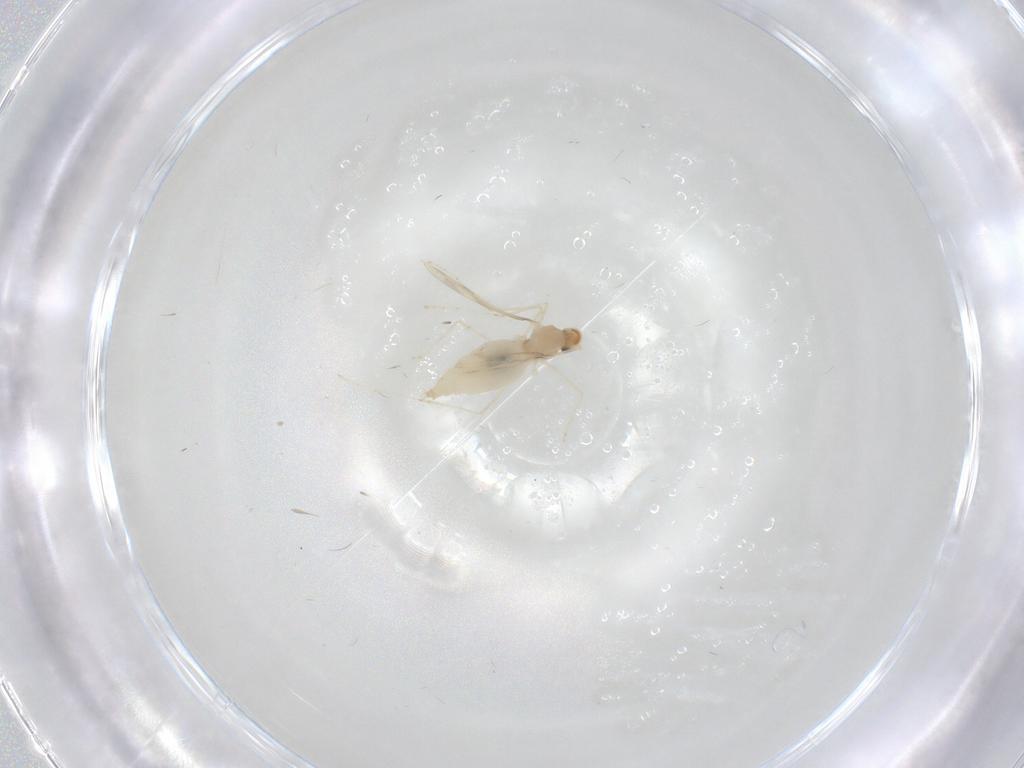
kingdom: Animalia
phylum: Arthropoda
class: Insecta
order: Diptera
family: Cecidomyiidae
